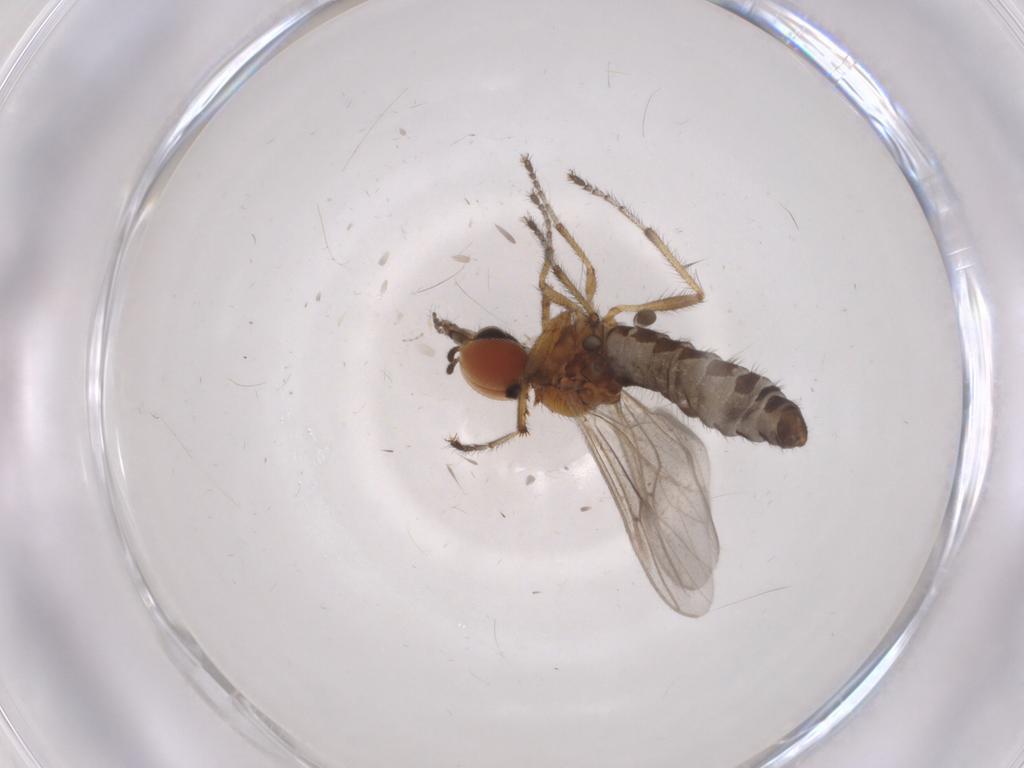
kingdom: Animalia
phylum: Arthropoda
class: Insecta
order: Diptera
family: Bibionidae
